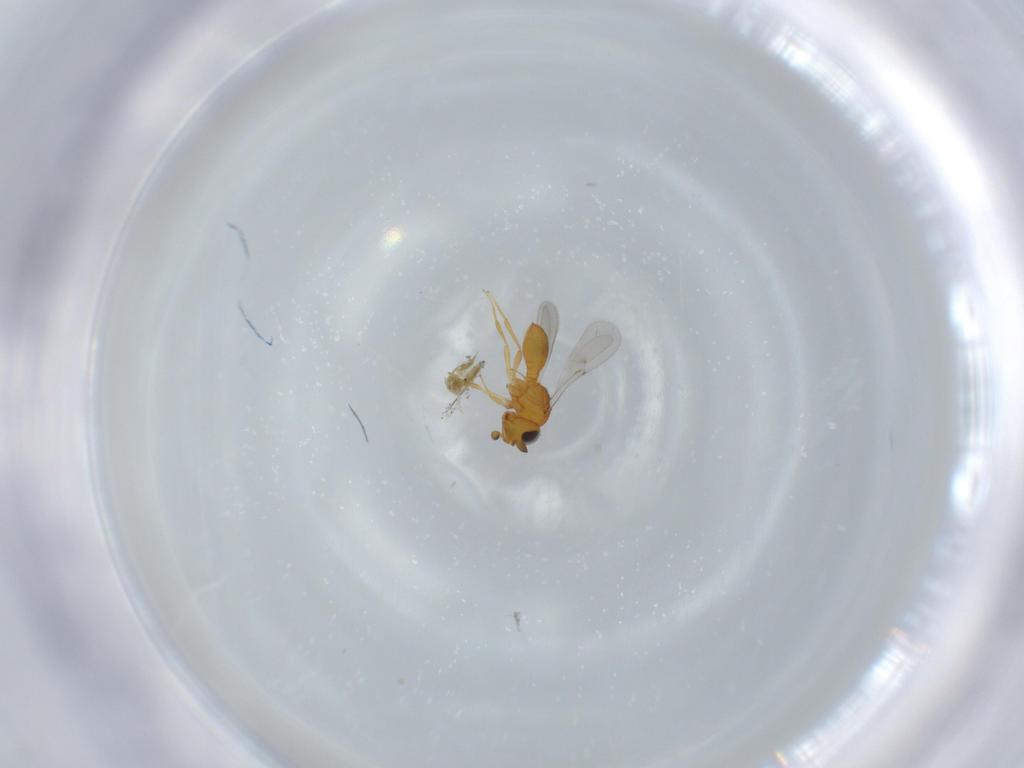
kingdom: Animalia
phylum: Arthropoda
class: Insecta
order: Hymenoptera
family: Scelionidae
